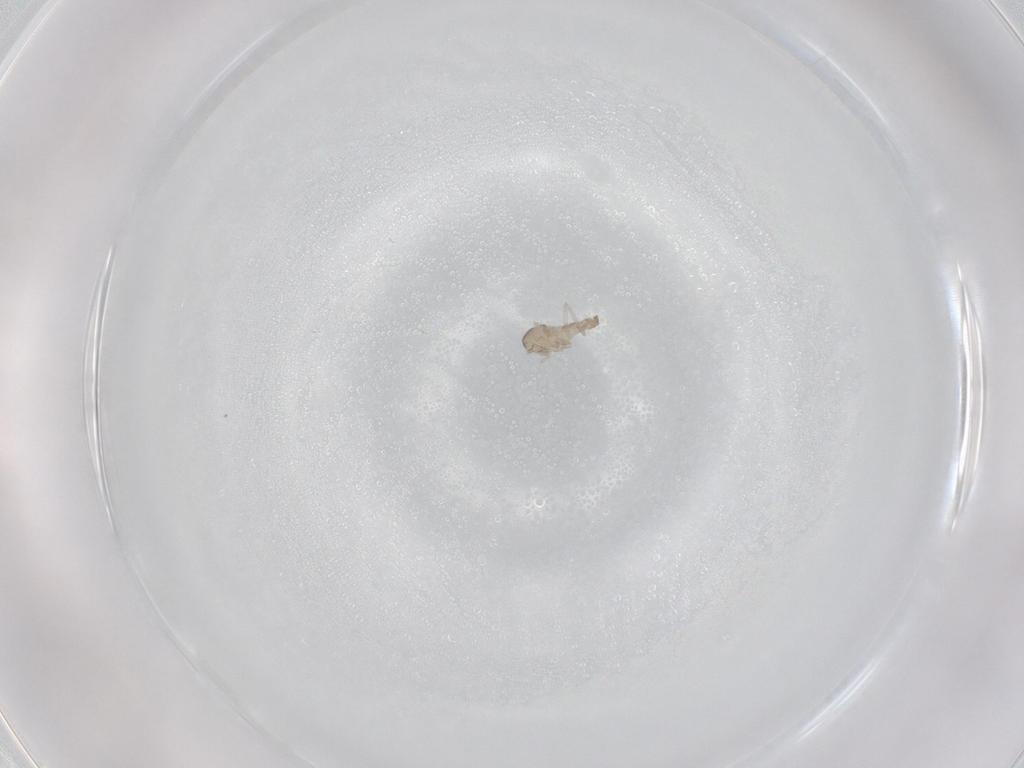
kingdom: Animalia
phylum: Arthropoda
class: Insecta
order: Diptera
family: Cecidomyiidae
